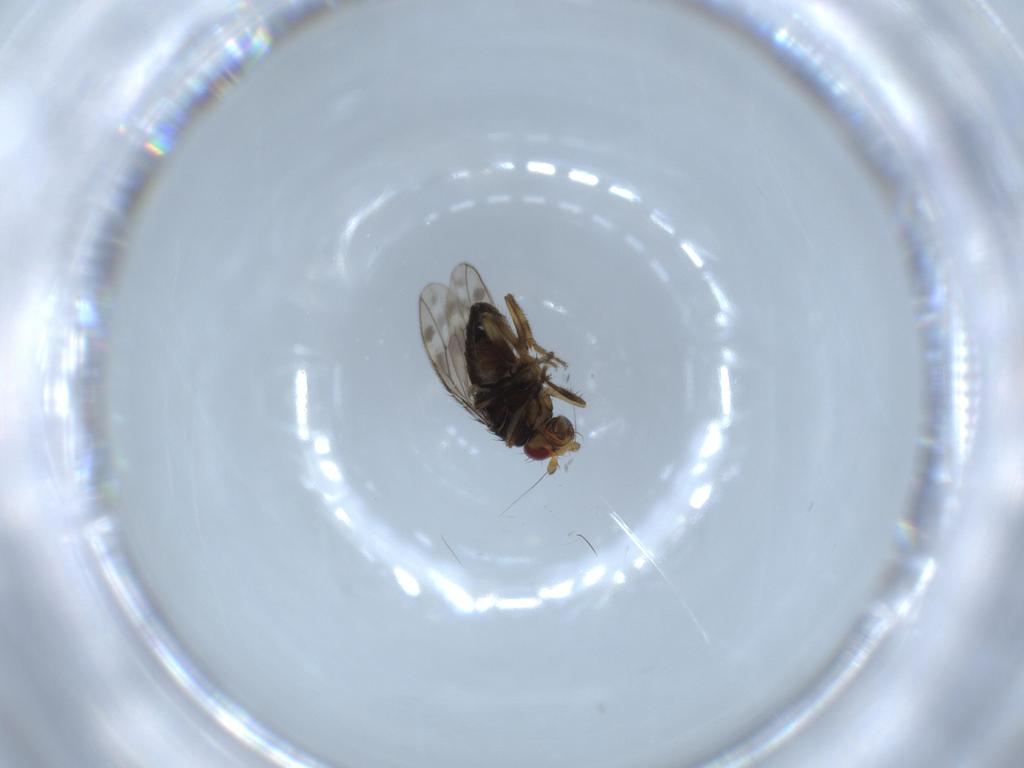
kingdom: Animalia
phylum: Arthropoda
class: Insecta
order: Diptera
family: Sphaeroceridae
